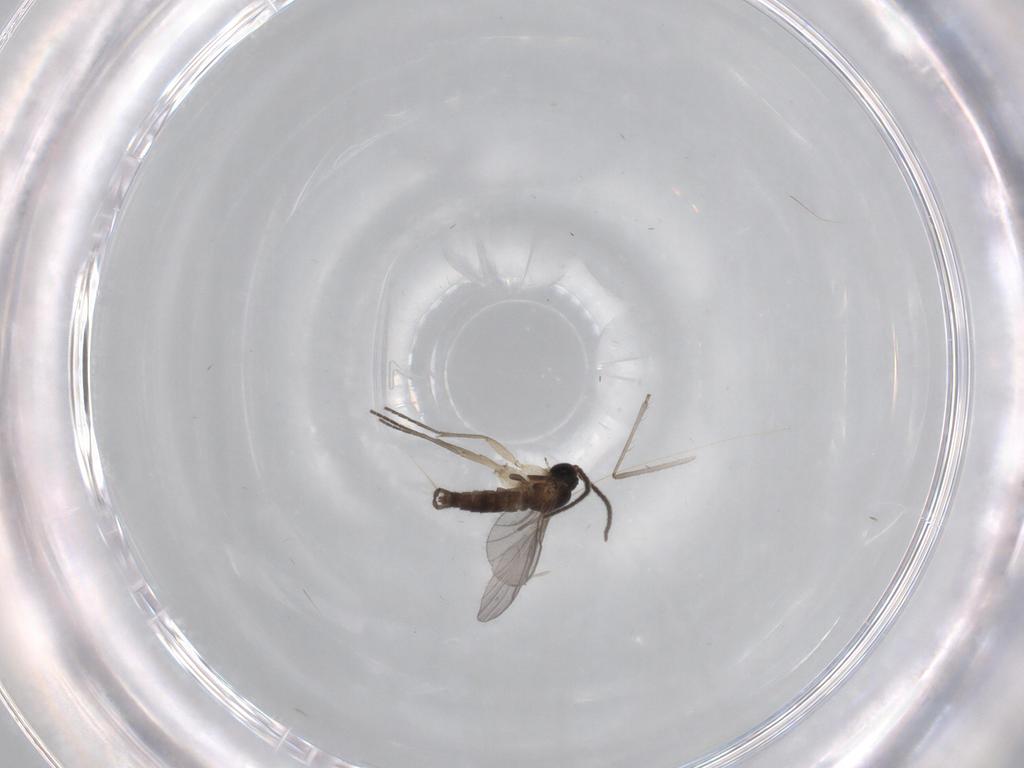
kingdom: Animalia
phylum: Arthropoda
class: Insecta
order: Diptera
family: Sciaridae
